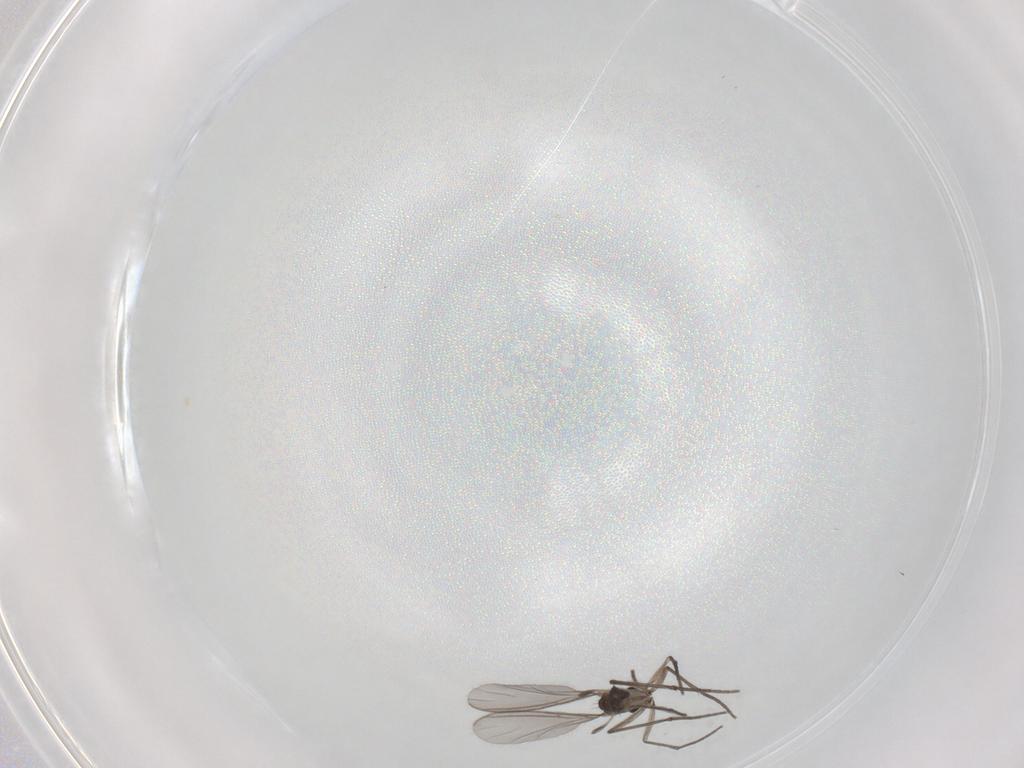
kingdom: Animalia
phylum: Arthropoda
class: Insecta
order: Diptera
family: Sciaridae
